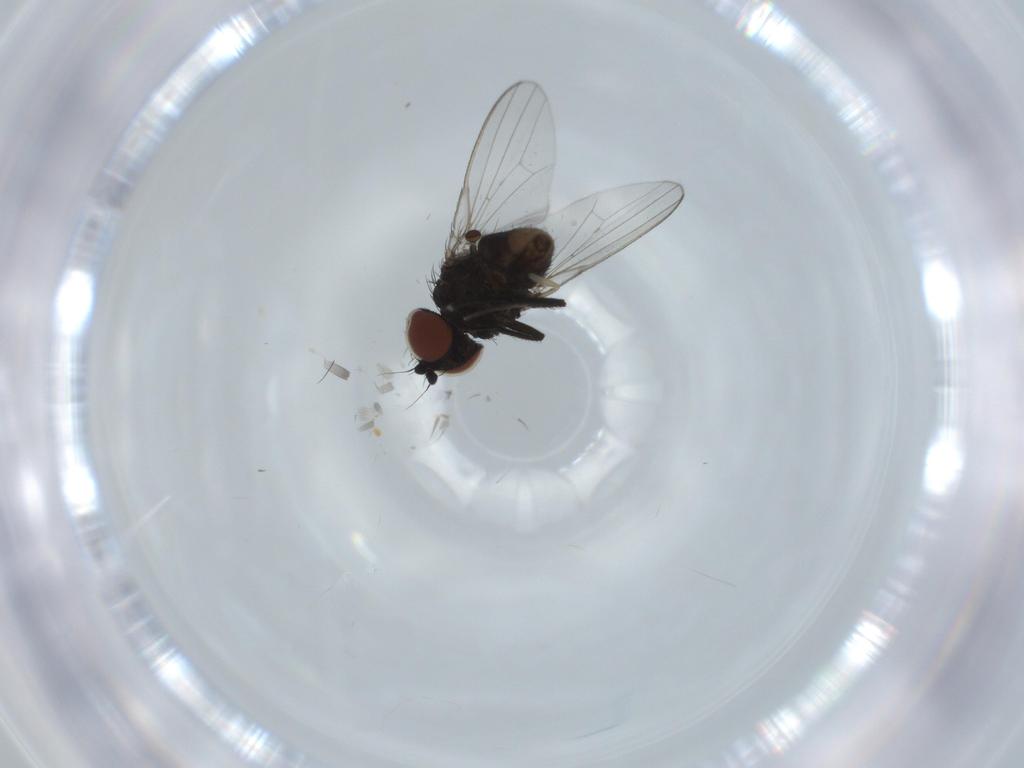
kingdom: Animalia
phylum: Arthropoda
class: Insecta
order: Diptera
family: Milichiidae
